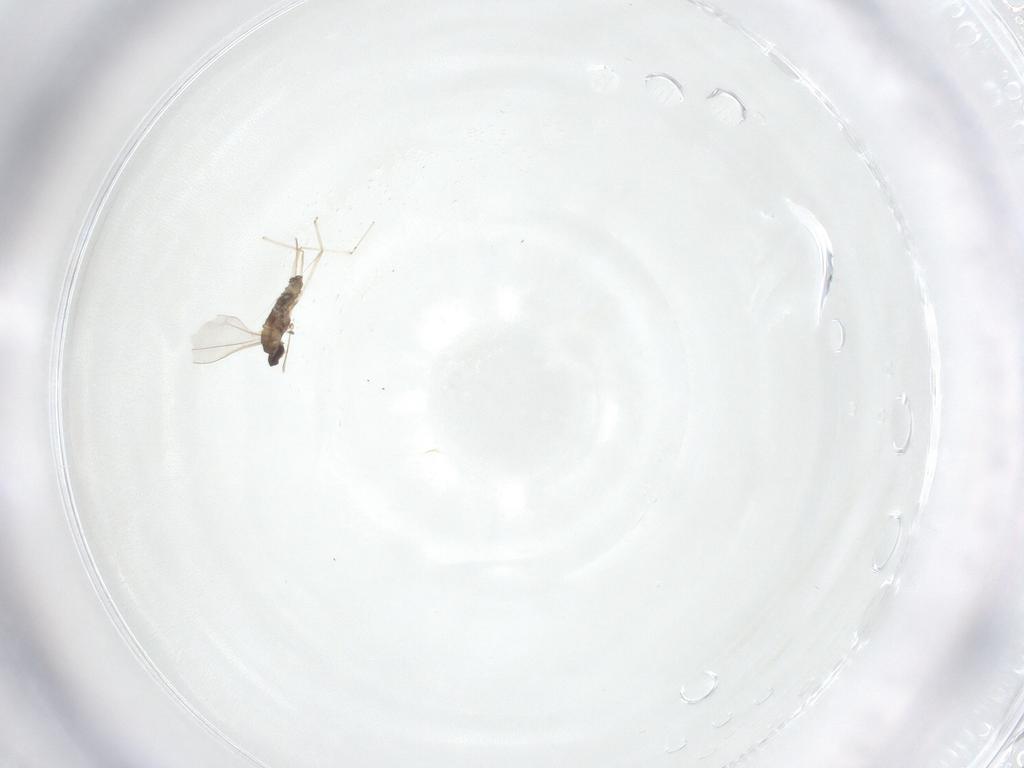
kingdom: Animalia
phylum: Arthropoda
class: Insecta
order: Diptera
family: Cecidomyiidae
